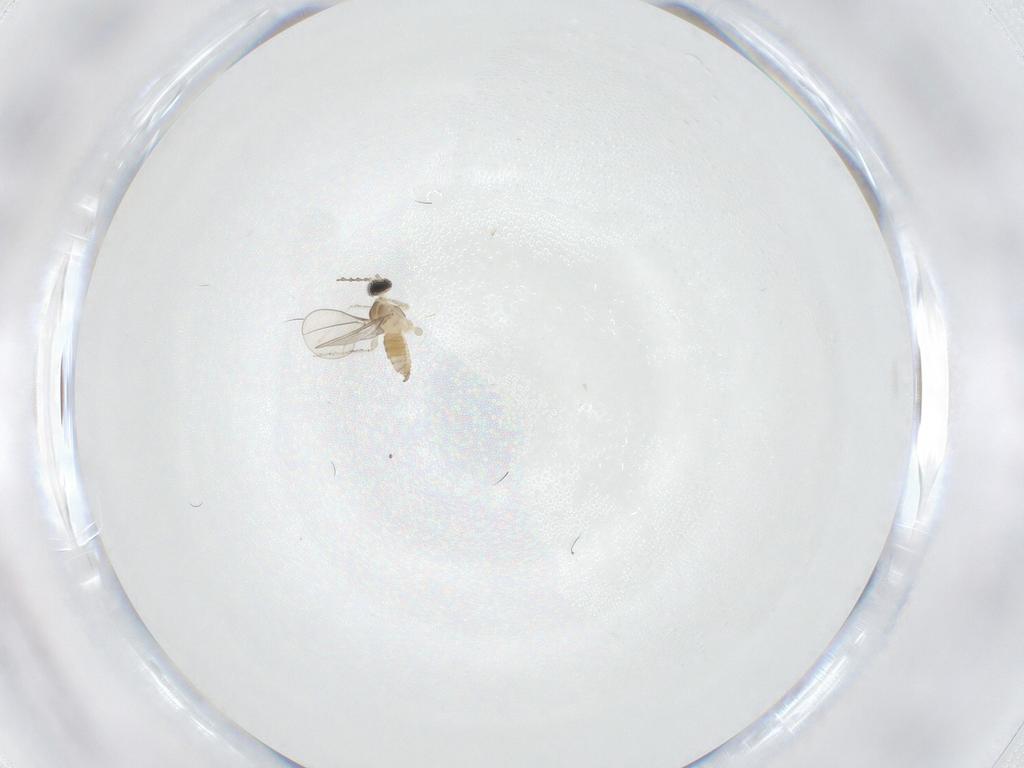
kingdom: Animalia
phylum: Arthropoda
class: Insecta
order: Diptera
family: Cecidomyiidae
